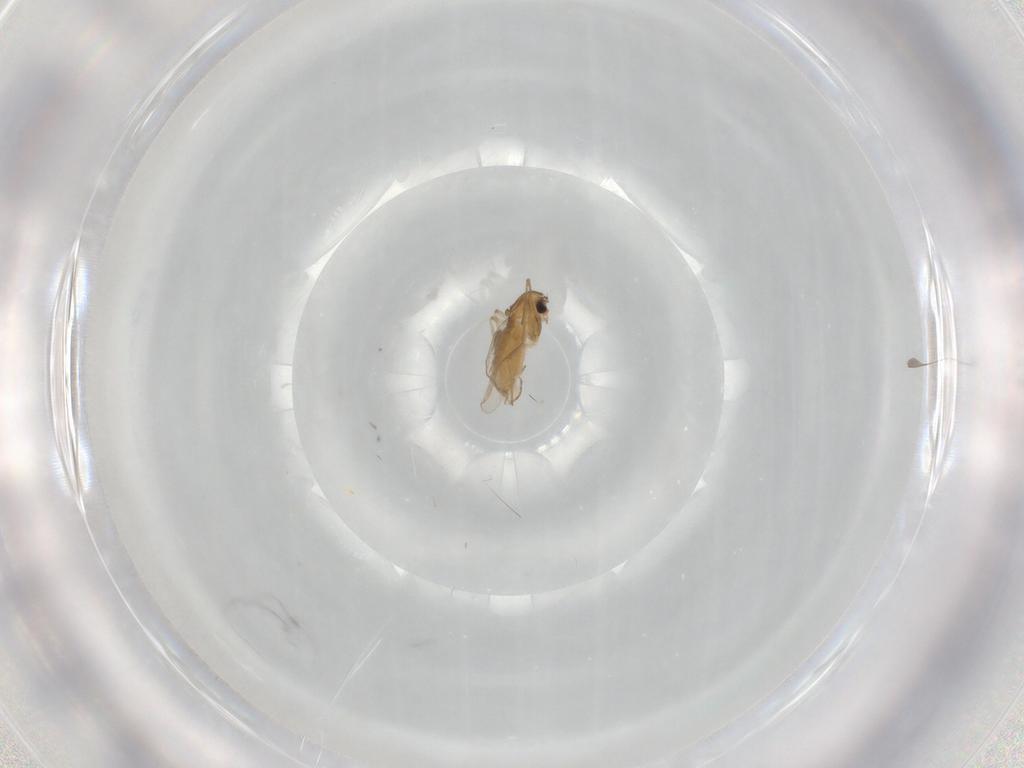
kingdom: Animalia
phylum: Arthropoda
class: Insecta
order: Diptera
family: Chironomidae
